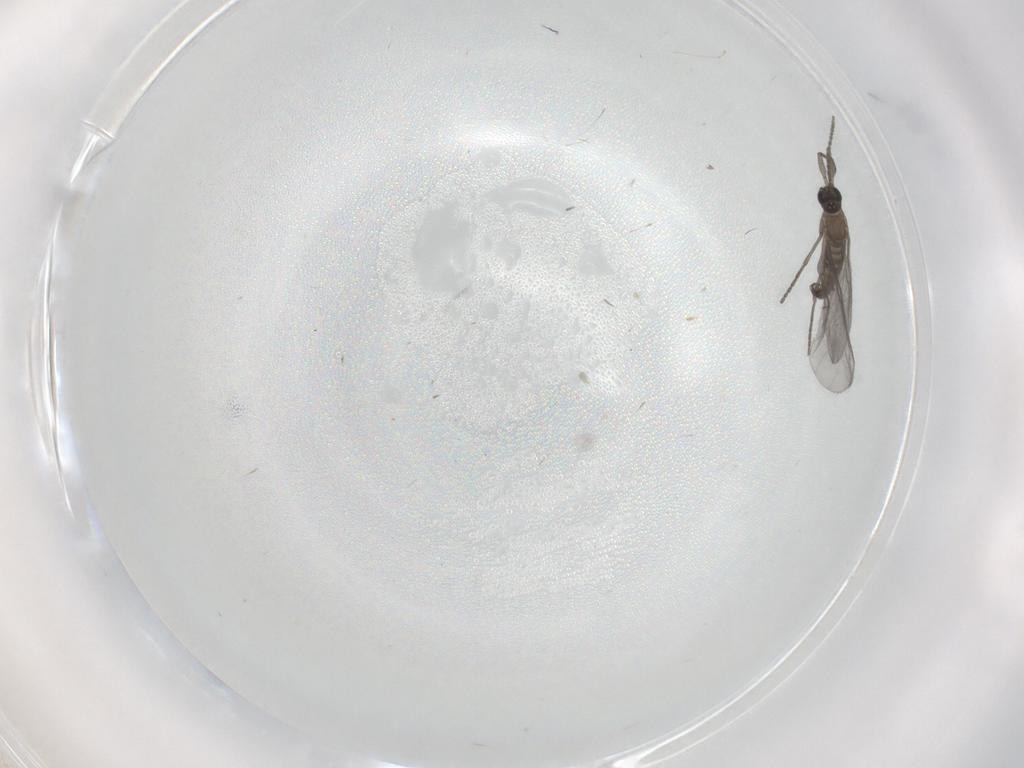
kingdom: Animalia
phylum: Arthropoda
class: Insecta
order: Diptera
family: Sciaridae
